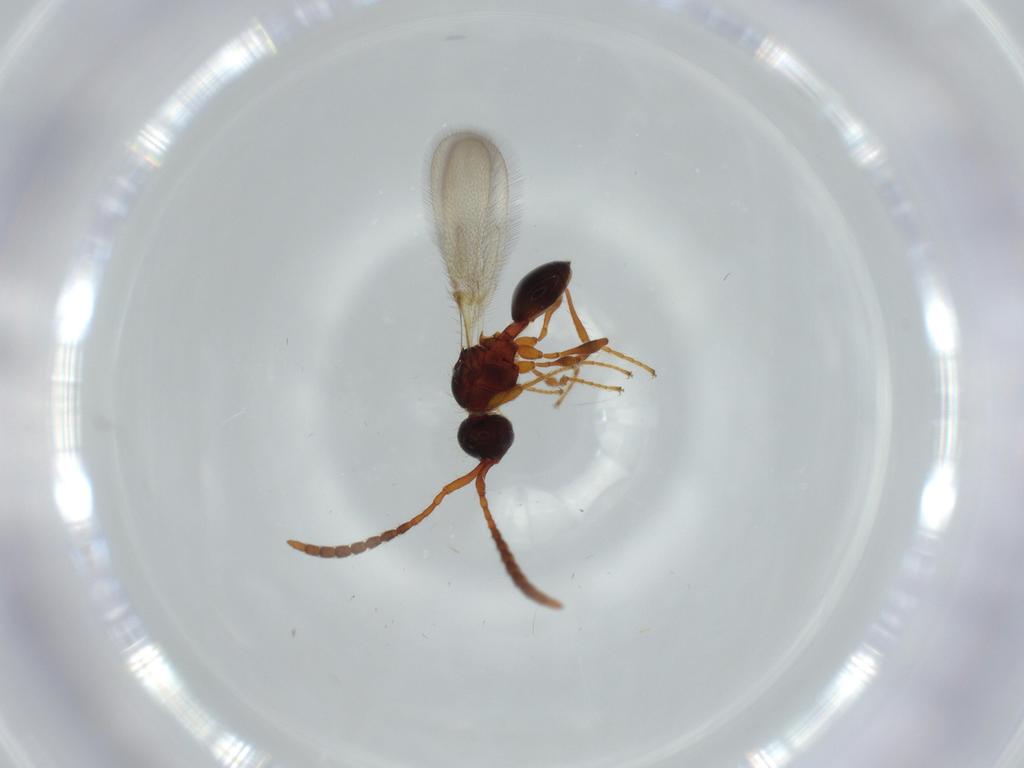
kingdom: Animalia
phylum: Arthropoda
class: Insecta
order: Hymenoptera
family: Diapriidae
